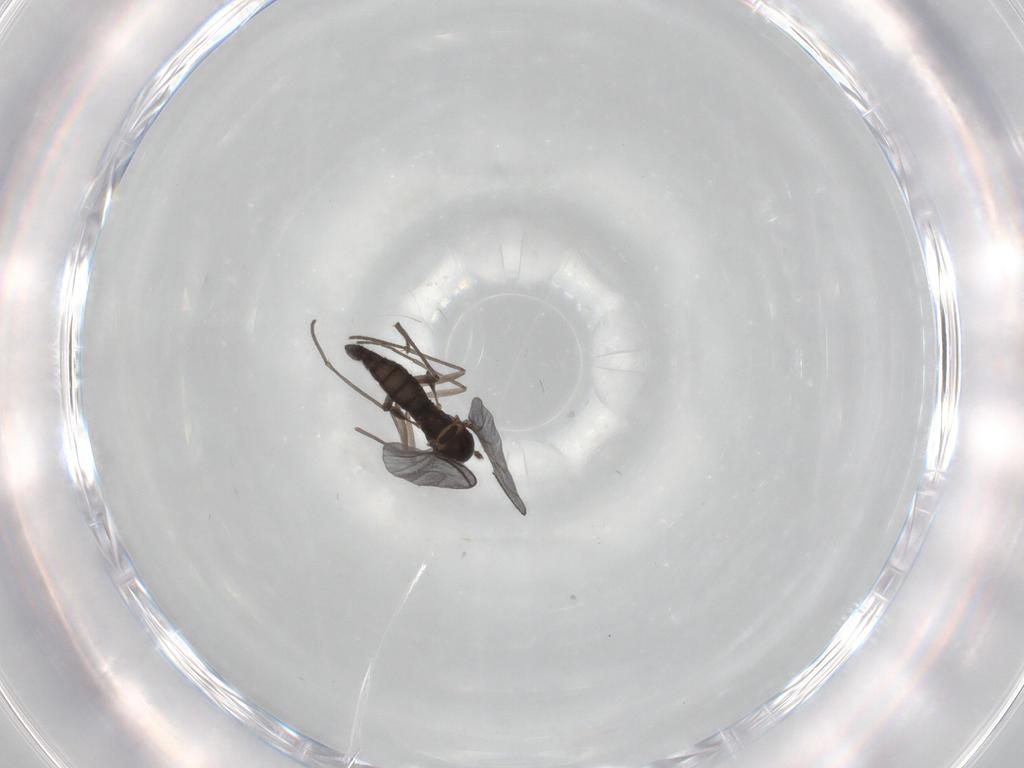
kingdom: Animalia
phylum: Arthropoda
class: Insecta
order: Diptera
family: Sciaridae
